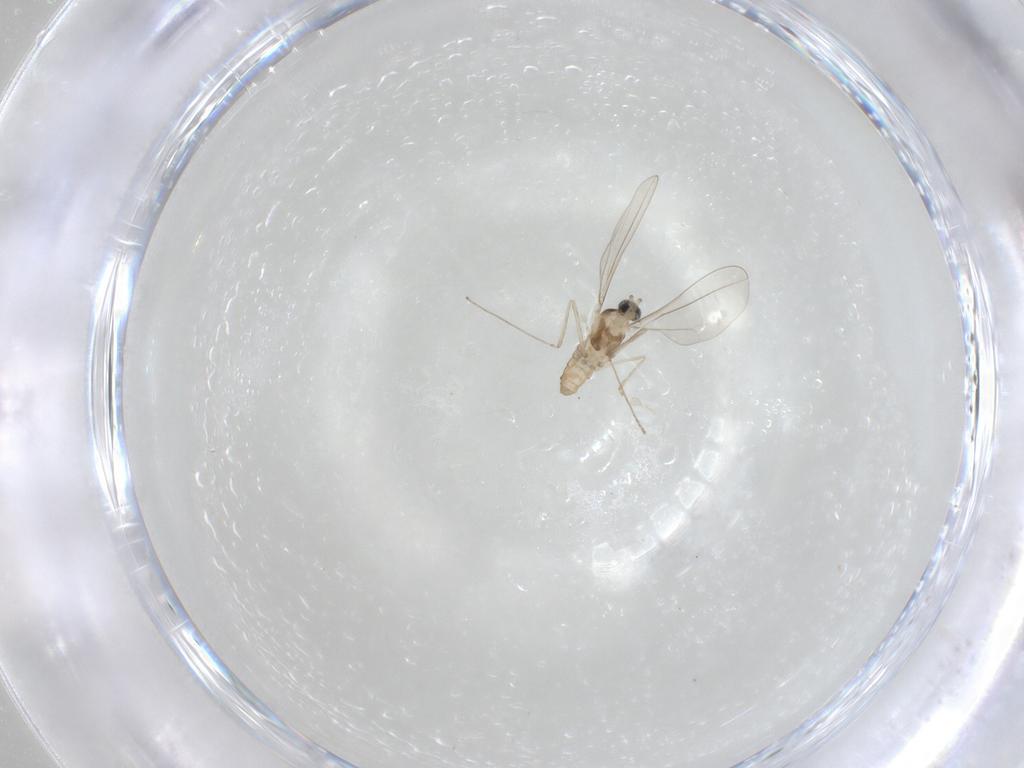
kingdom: Animalia
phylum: Arthropoda
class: Insecta
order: Diptera
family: Cecidomyiidae
